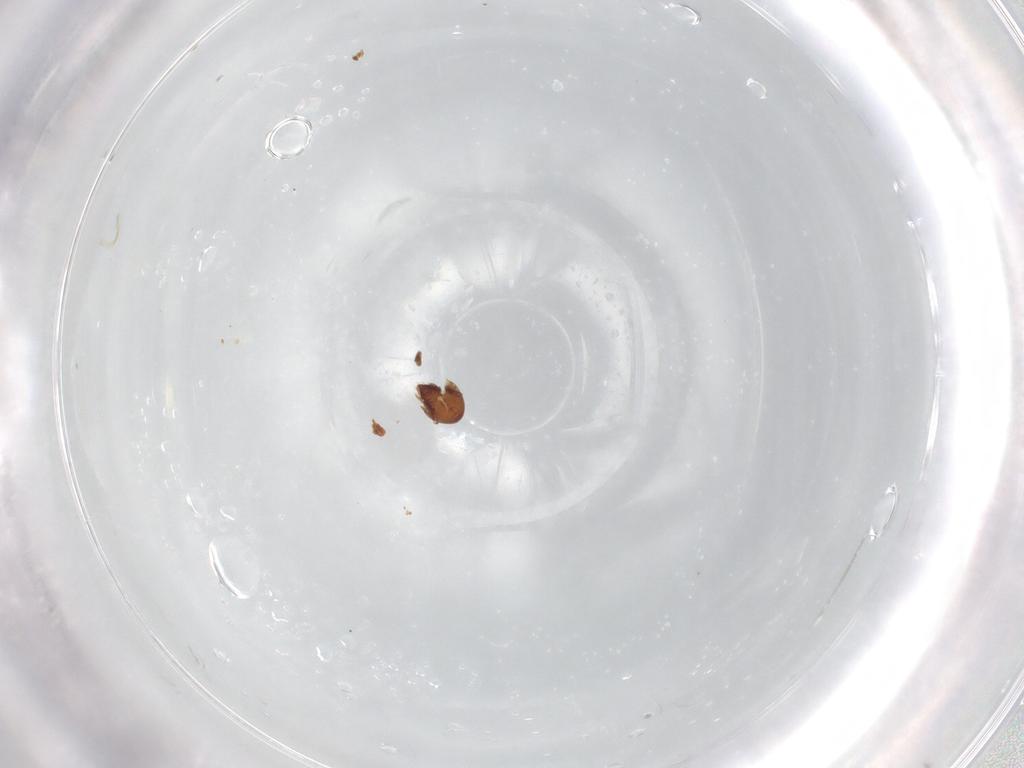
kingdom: Animalia
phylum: Arthropoda
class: Arachnida
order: Sarcoptiformes
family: Ceratozetidae
